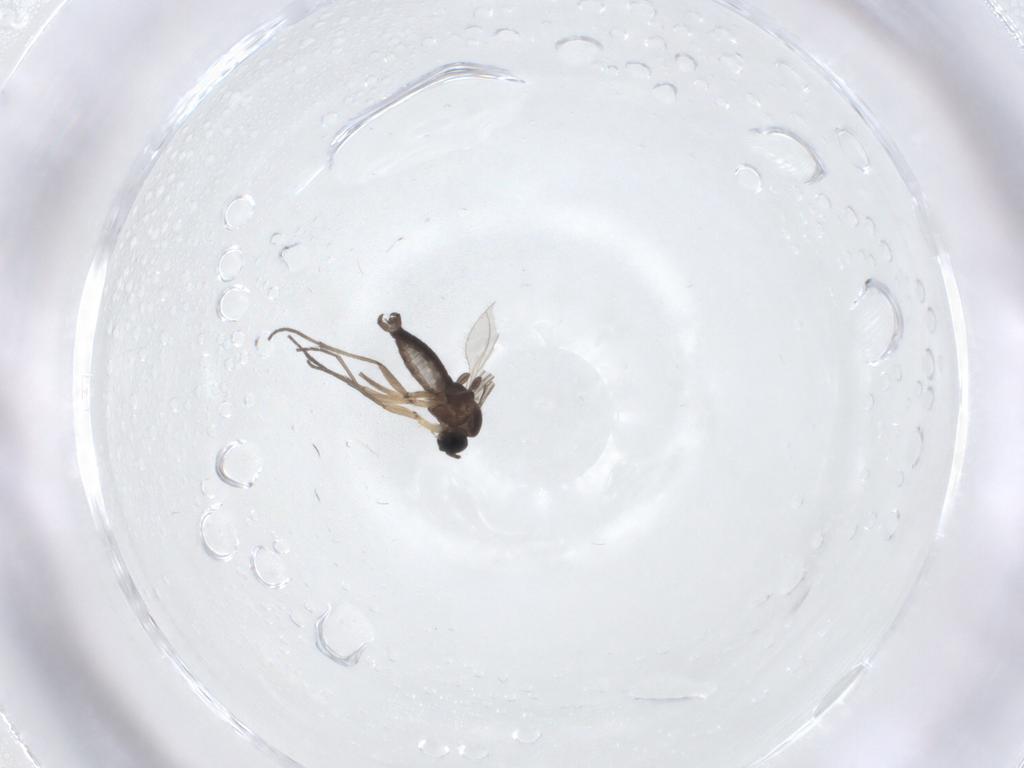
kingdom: Animalia
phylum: Arthropoda
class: Insecta
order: Diptera
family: Sciaridae
